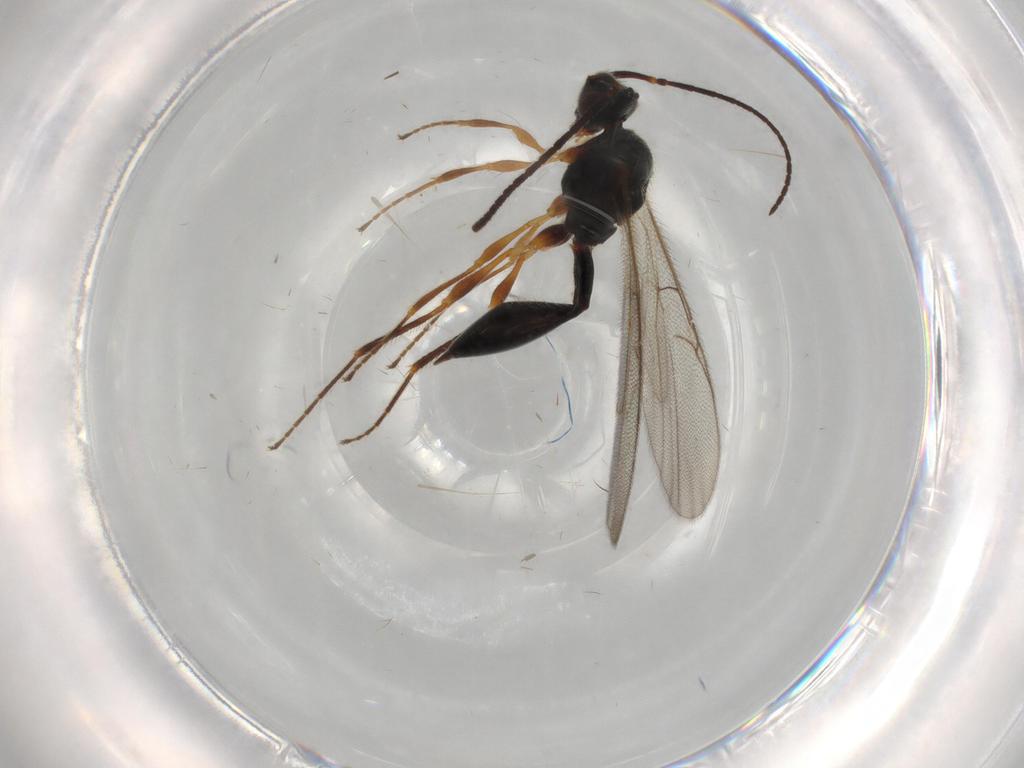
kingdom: Animalia
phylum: Arthropoda
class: Insecta
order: Hymenoptera
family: Diapriidae
